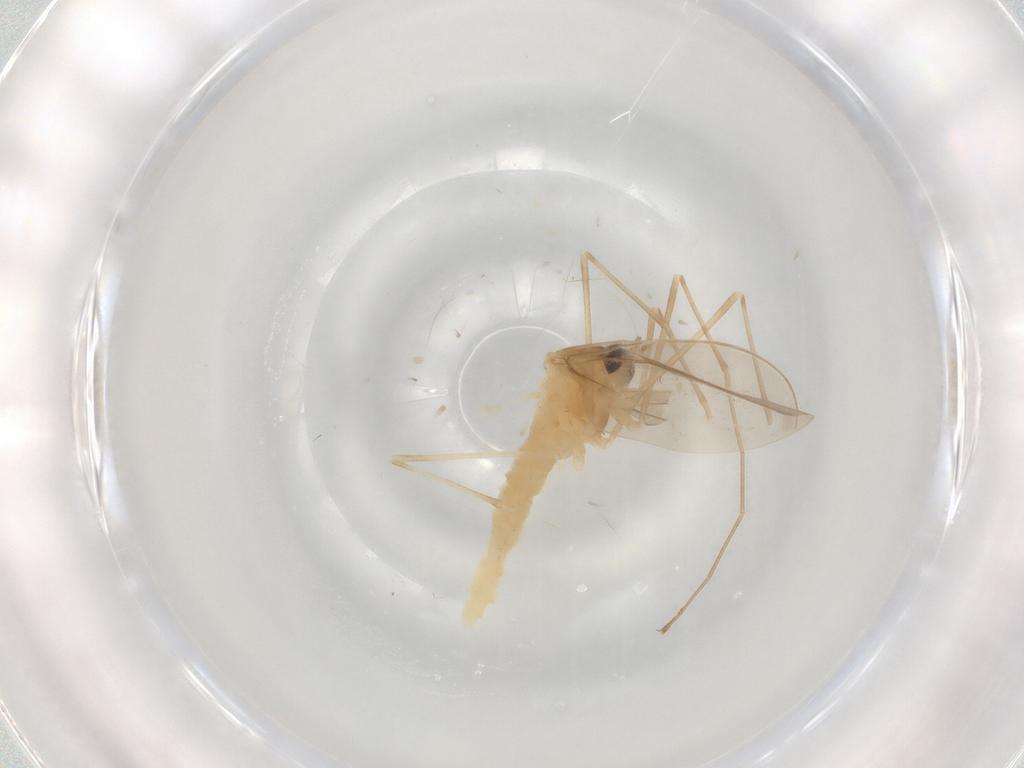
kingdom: Animalia
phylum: Arthropoda
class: Insecta
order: Diptera
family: Cecidomyiidae
